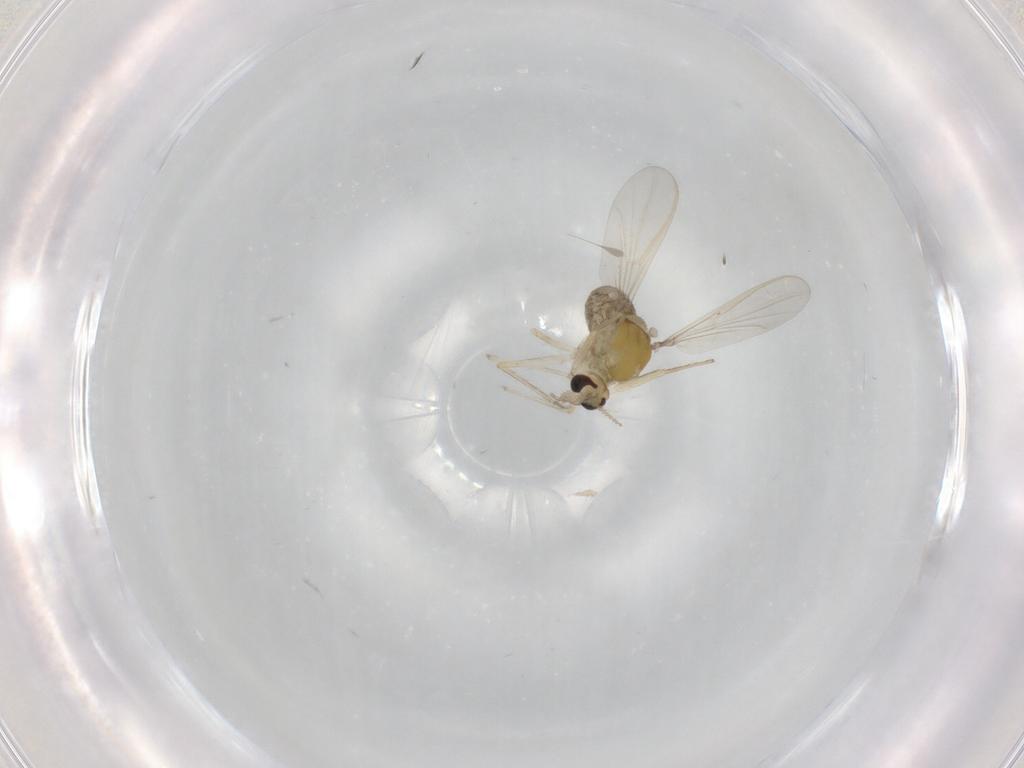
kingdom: Animalia
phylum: Arthropoda
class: Insecta
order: Diptera
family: Chironomidae
